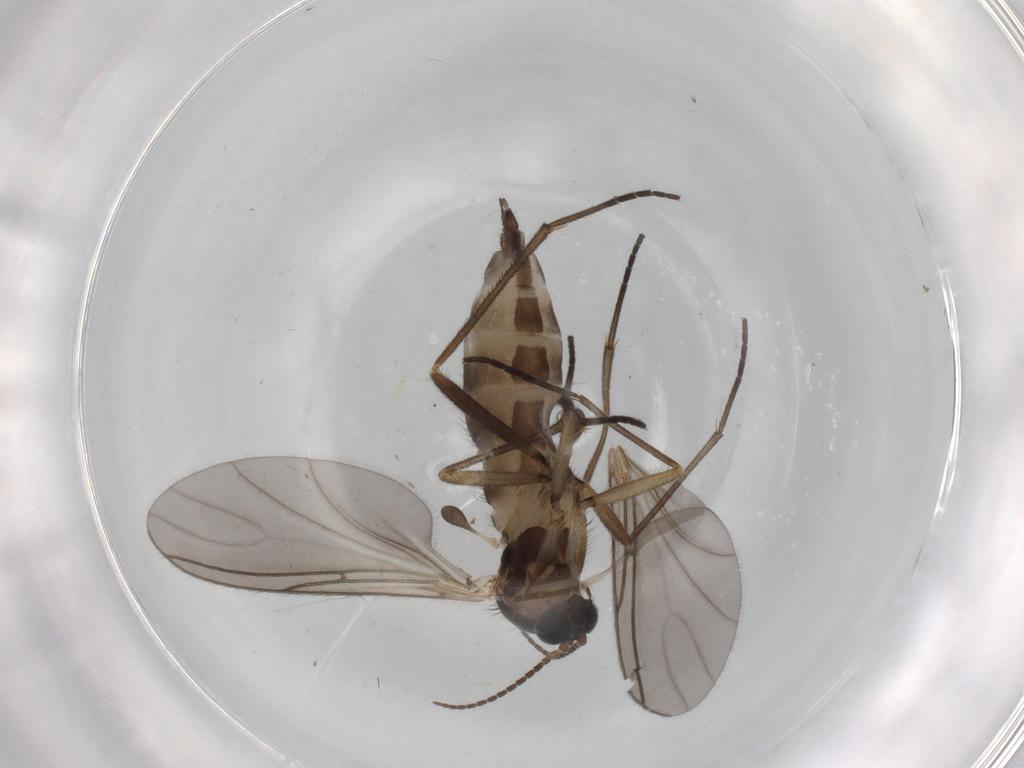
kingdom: Animalia
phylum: Arthropoda
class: Insecta
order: Diptera
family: Sciaridae
